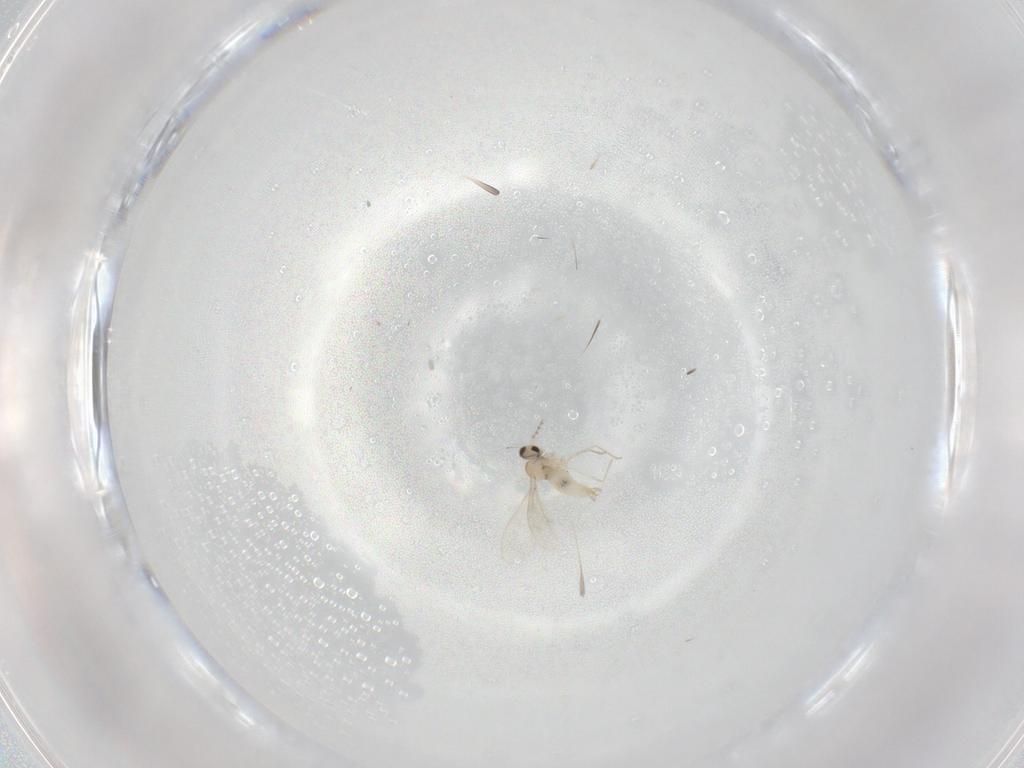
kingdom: Animalia
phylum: Arthropoda
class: Insecta
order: Diptera
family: Cecidomyiidae
